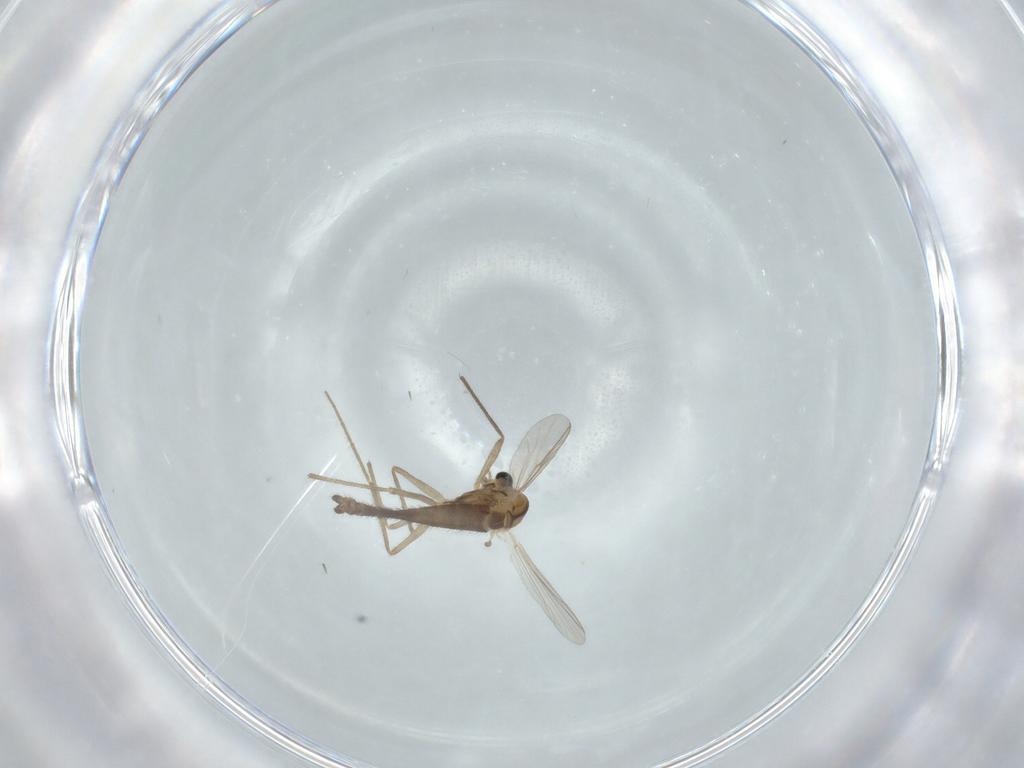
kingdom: Animalia
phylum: Arthropoda
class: Insecta
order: Diptera
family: Chironomidae
